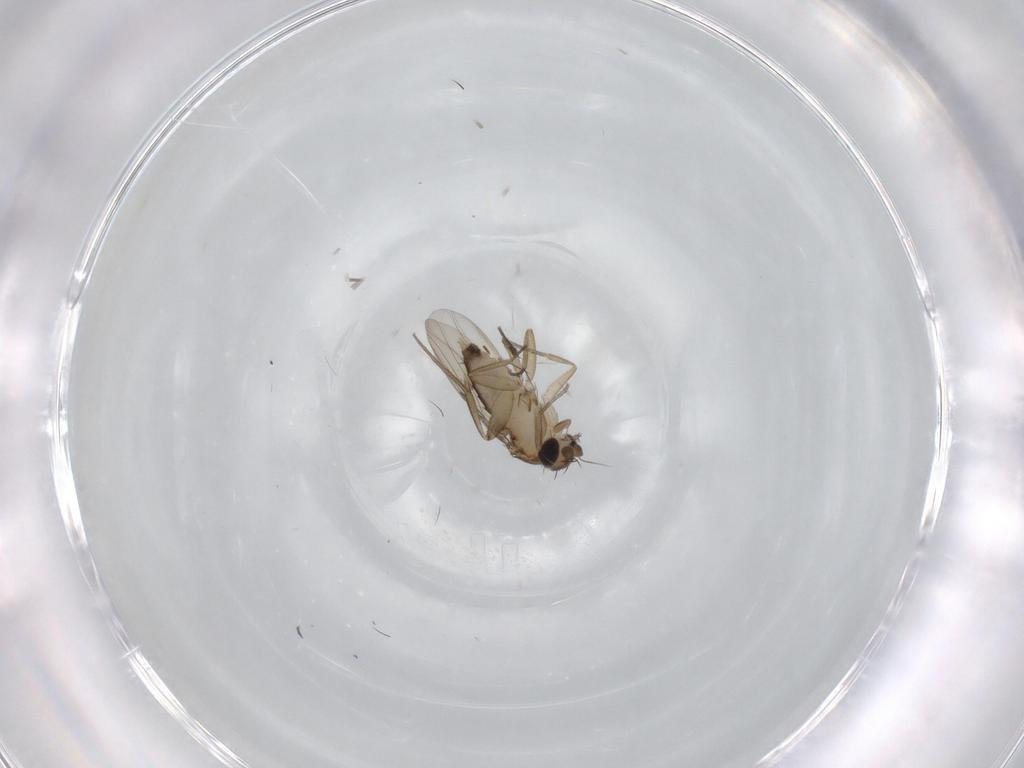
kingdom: Animalia
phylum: Arthropoda
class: Insecta
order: Diptera
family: Phoridae
